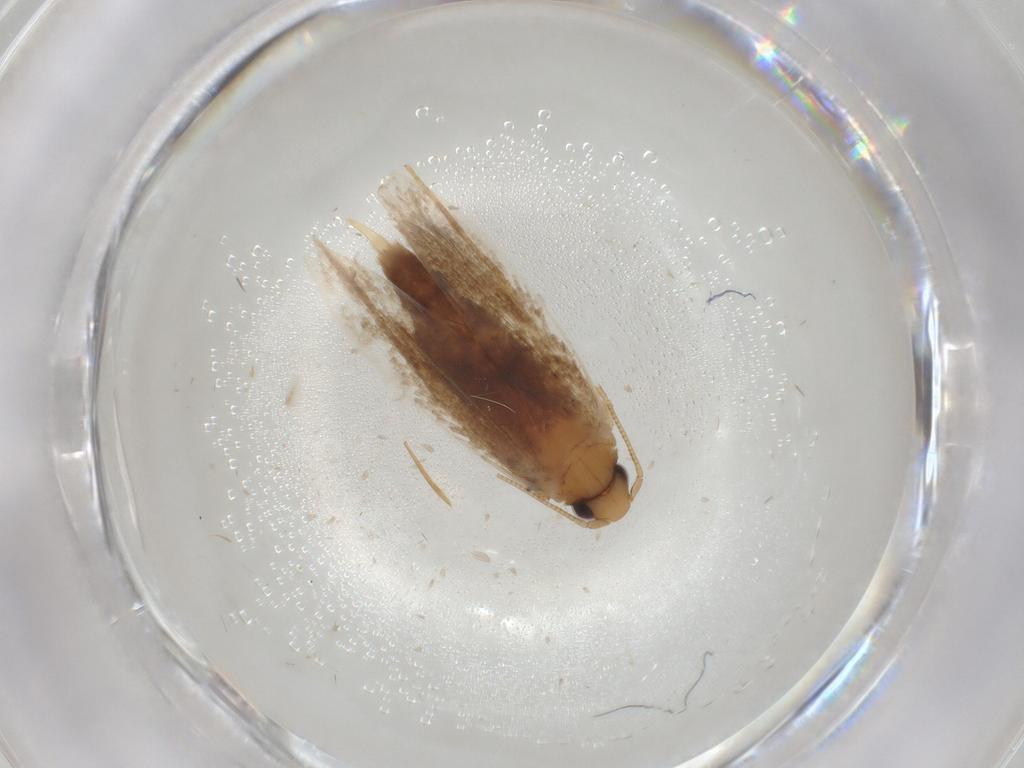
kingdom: Animalia
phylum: Arthropoda
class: Insecta
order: Lepidoptera
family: Tineidae
